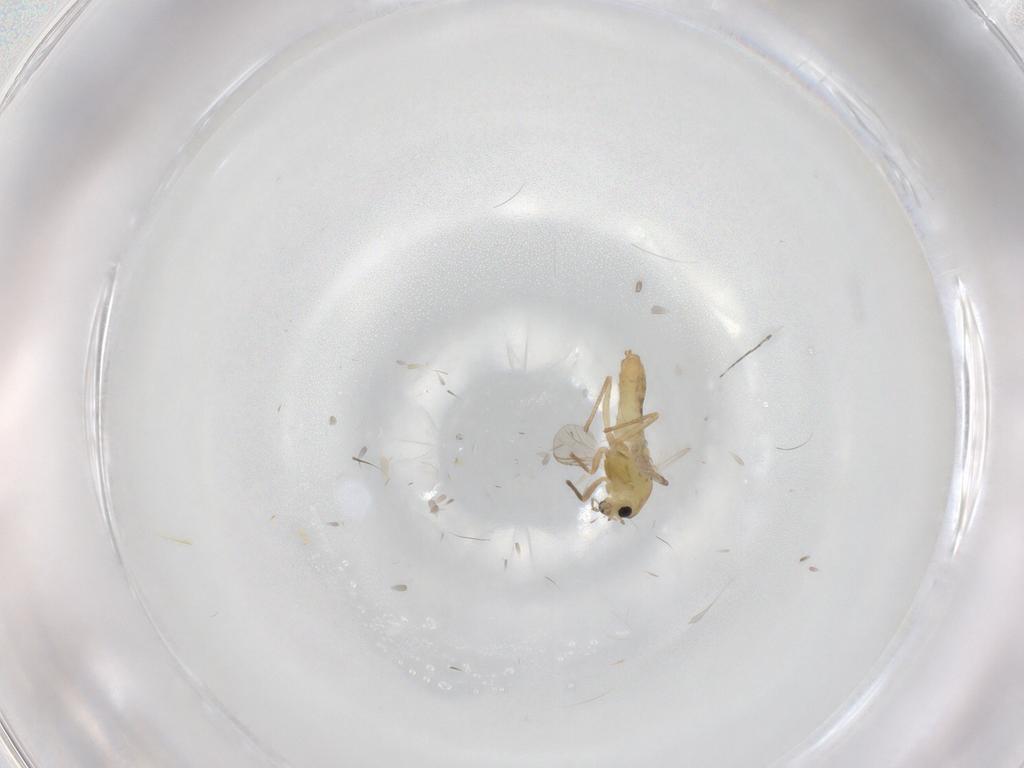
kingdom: Animalia
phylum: Arthropoda
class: Insecta
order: Diptera
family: Chironomidae
